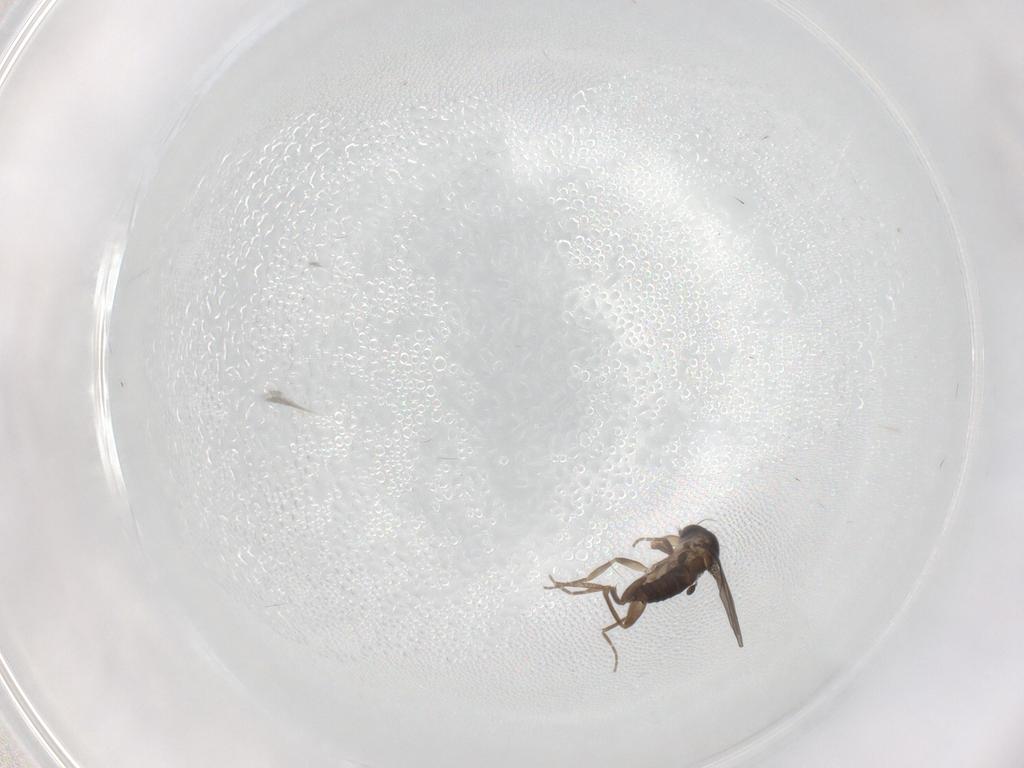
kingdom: Animalia
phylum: Arthropoda
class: Insecta
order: Diptera
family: Phoridae
